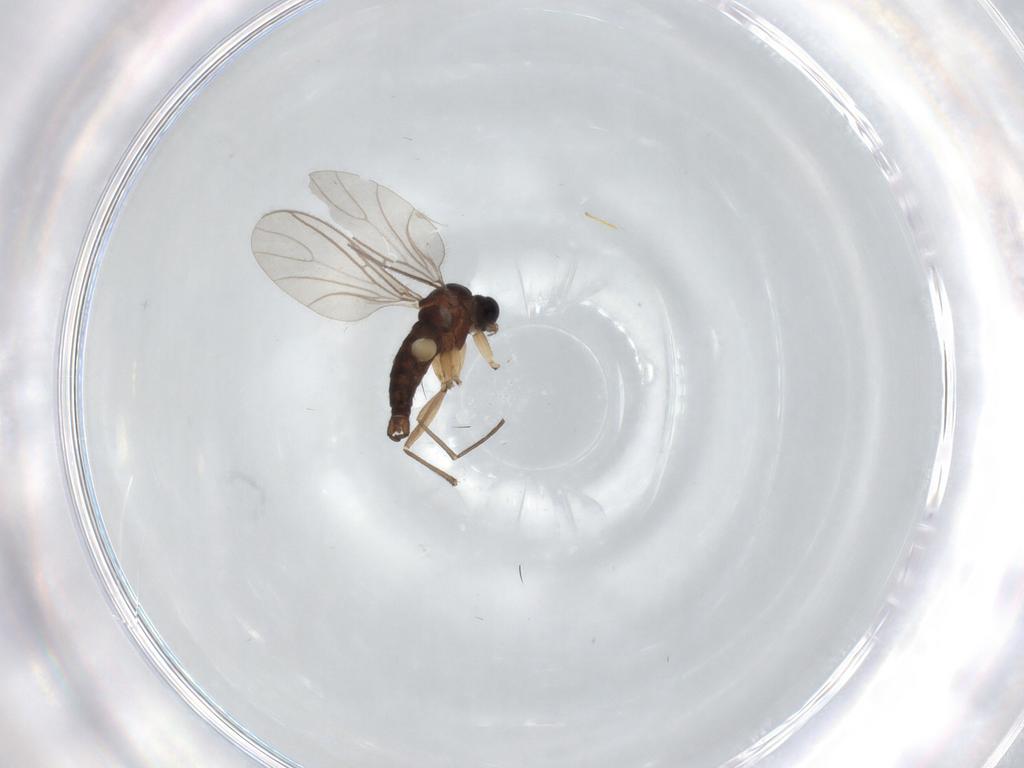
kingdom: Animalia
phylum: Arthropoda
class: Insecta
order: Diptera
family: Sciaridae
